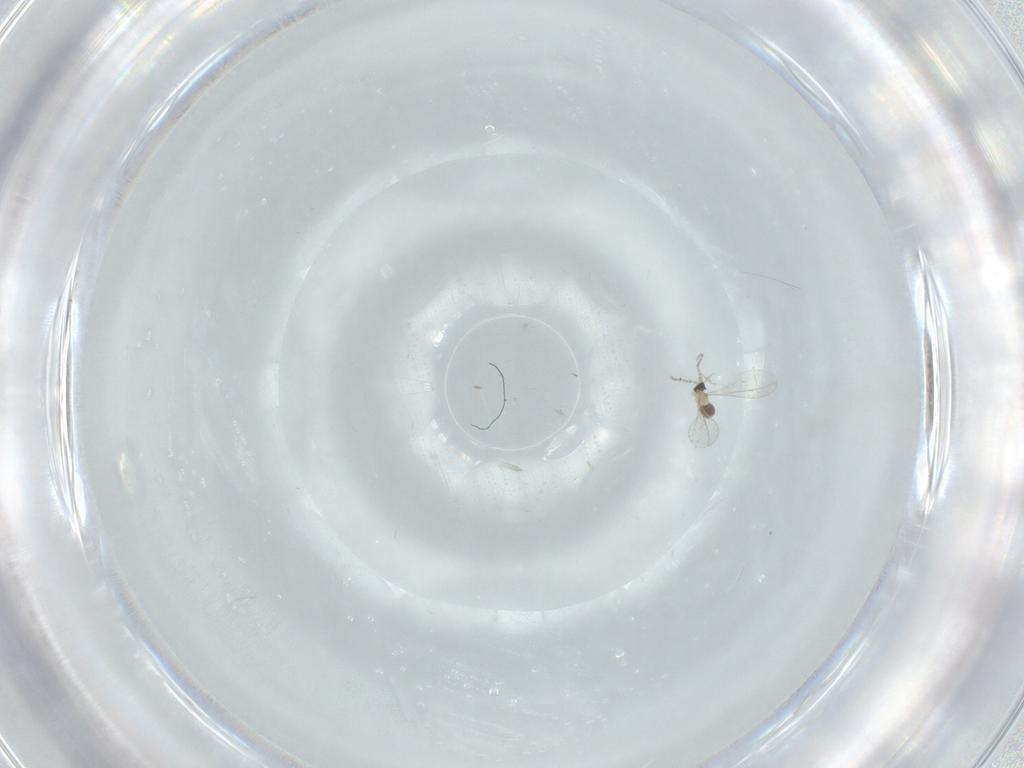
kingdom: Animalia
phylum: Arthropoda
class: Insecta
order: Diptera
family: Cecidomyiidae
